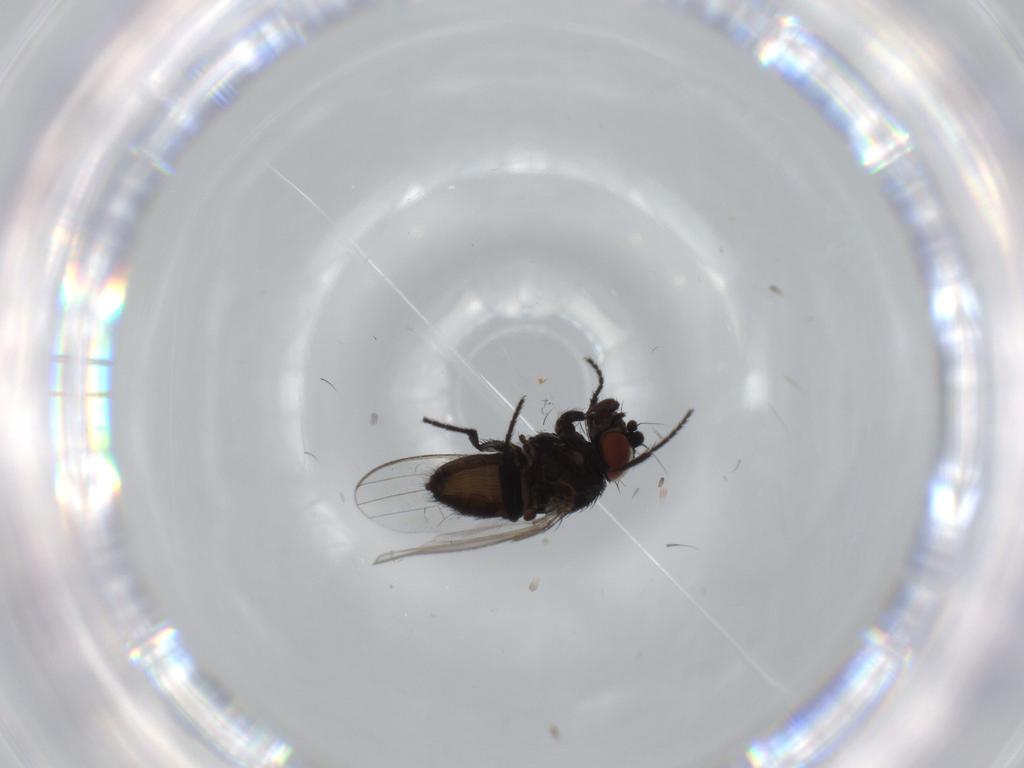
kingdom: Animalia
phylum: Arthropoda
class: Insecta
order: Diptera
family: Milichiidae
